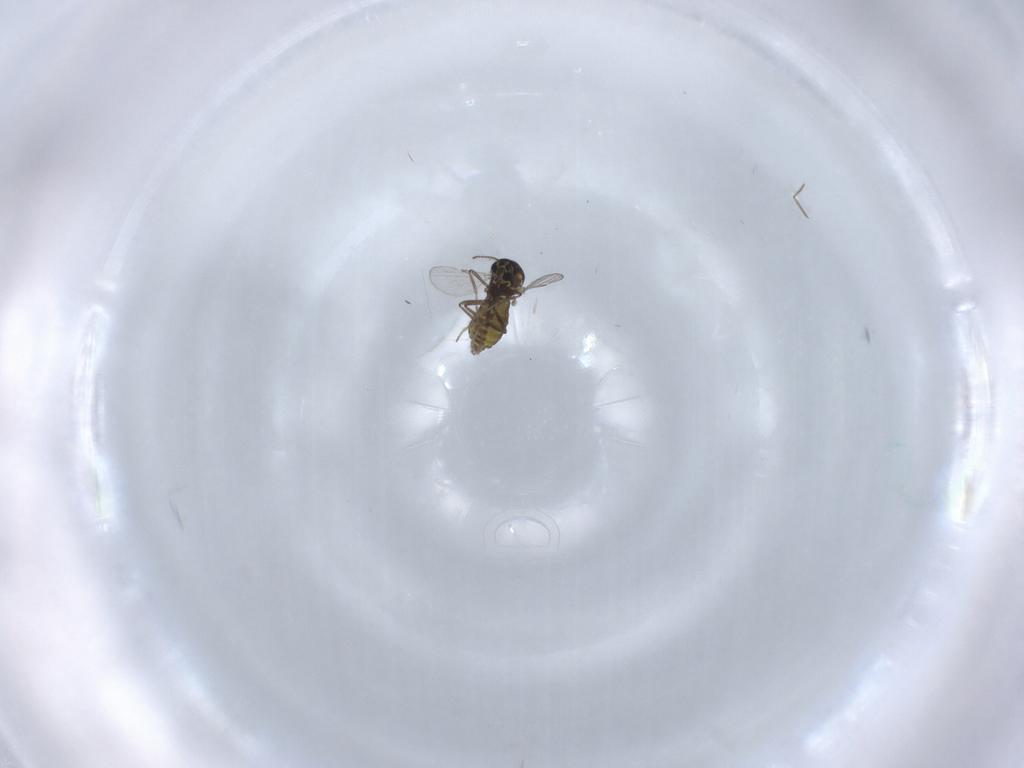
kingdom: Animalia
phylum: Arthropoda
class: Insecta
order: Diptera
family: Ceratopogonidae
